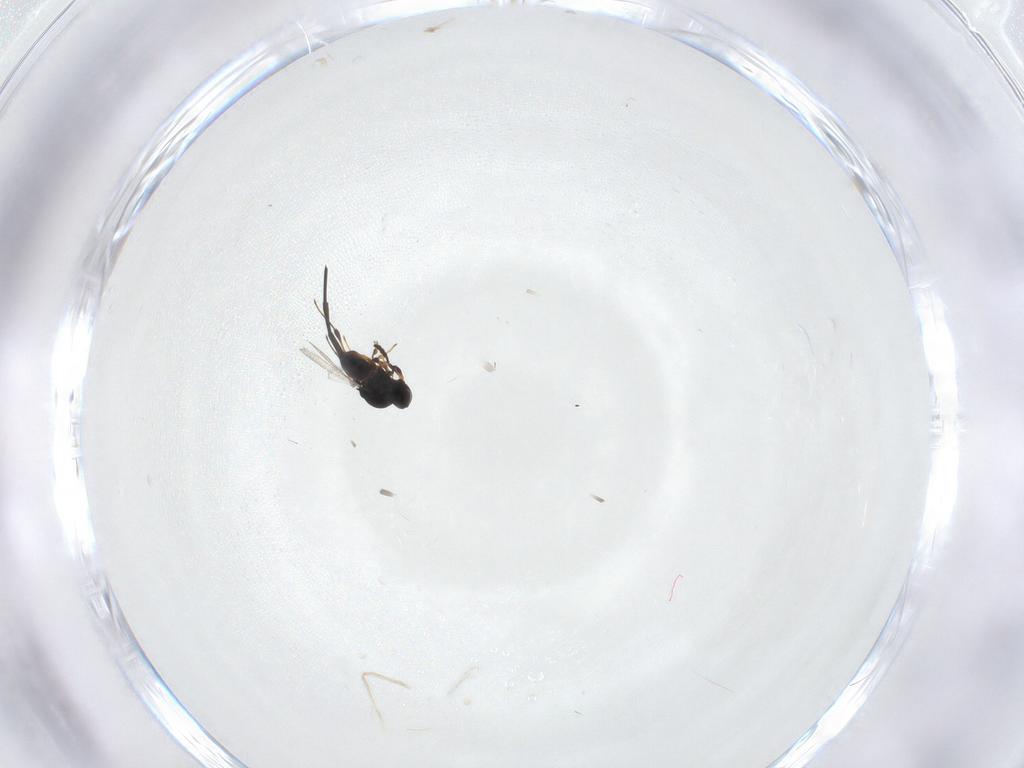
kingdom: Animalia
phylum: Arthropoda
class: Insecta
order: Hymenoptera
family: Platygastridae
